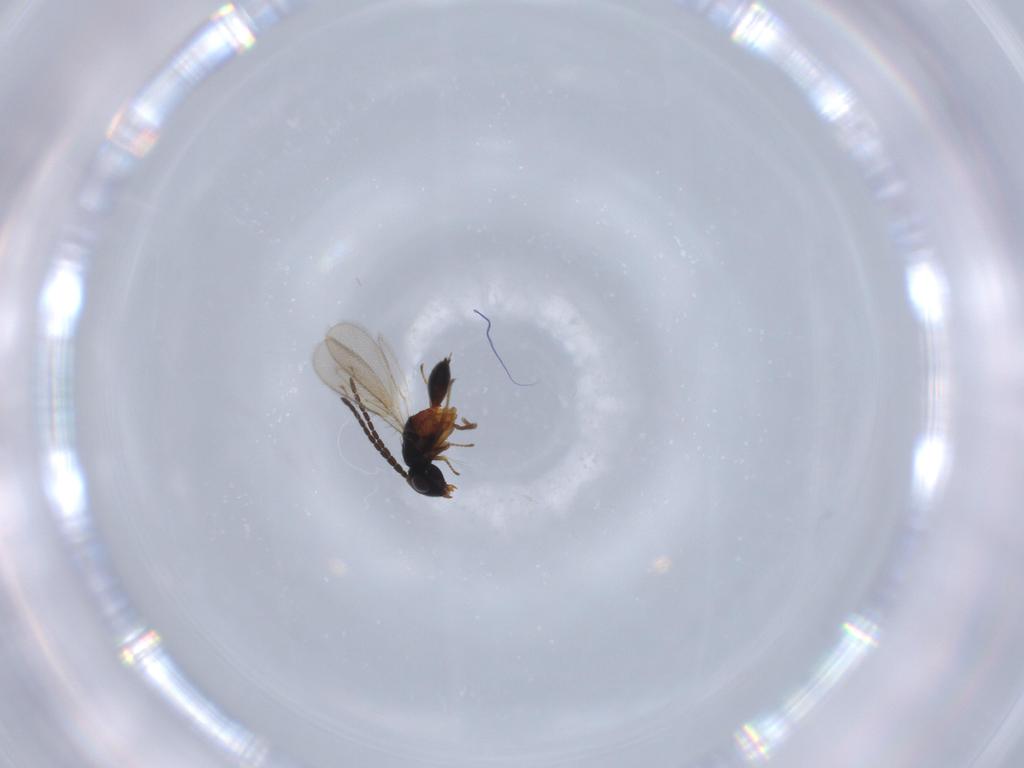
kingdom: Animalia
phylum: Arthropoda
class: Insecta
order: Hymenoptera
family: Diparidae
